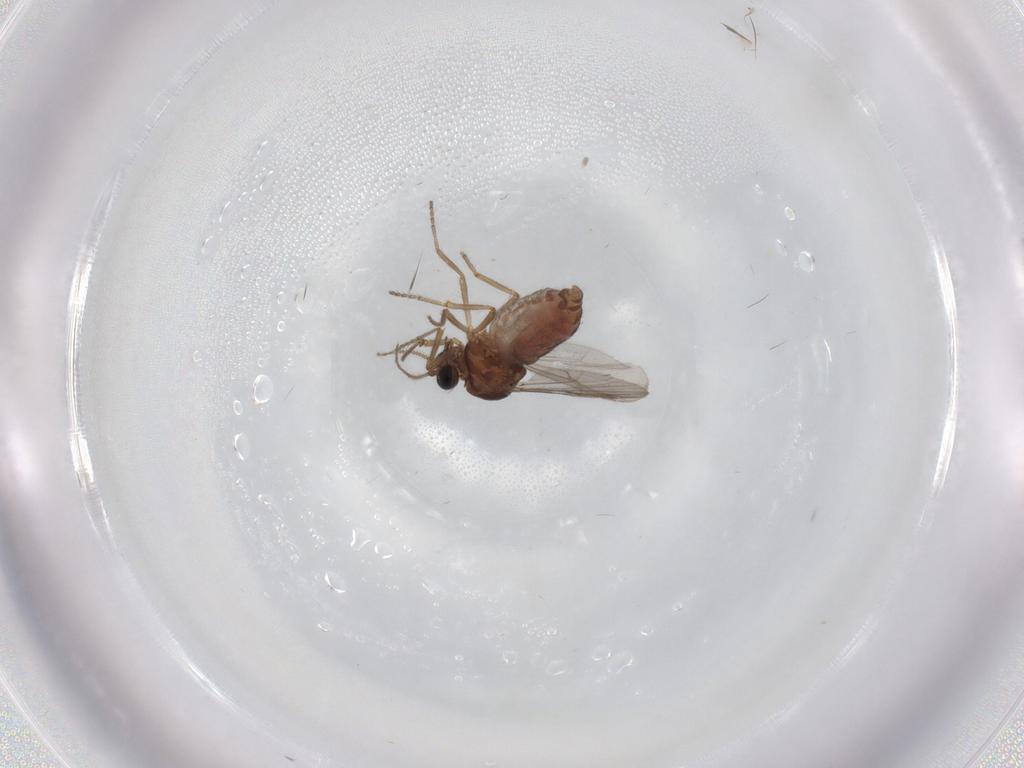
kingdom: Animalia
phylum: Arthropoda
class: Insecta
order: Diptera
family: Ceratopogonidae
